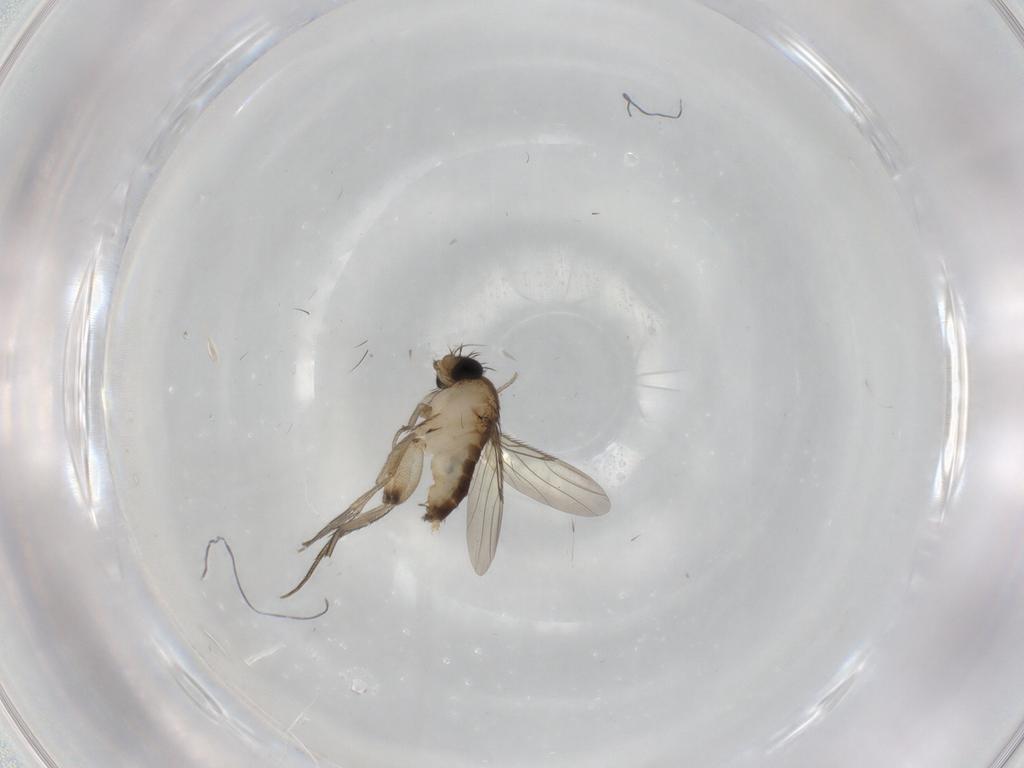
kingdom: Animalia
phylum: Arthropoda
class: Insecta
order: Diptera
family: Phoridae
